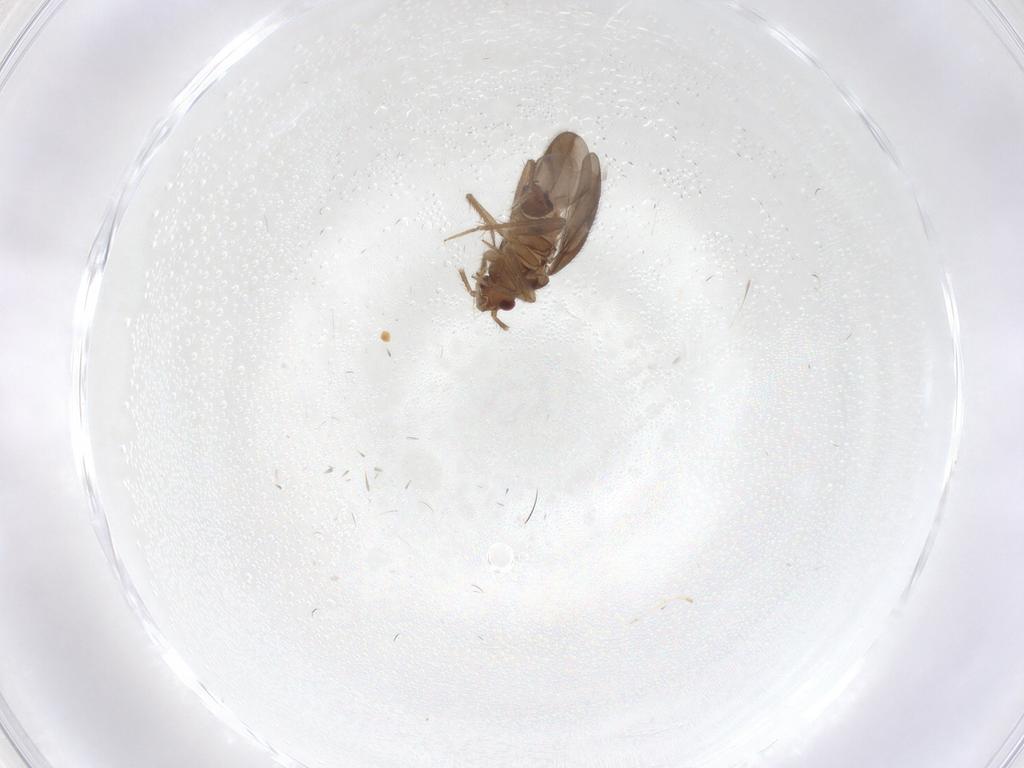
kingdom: Animalia
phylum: Arthropoda
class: Insecta
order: Hemiptera
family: Ceratocombidae
